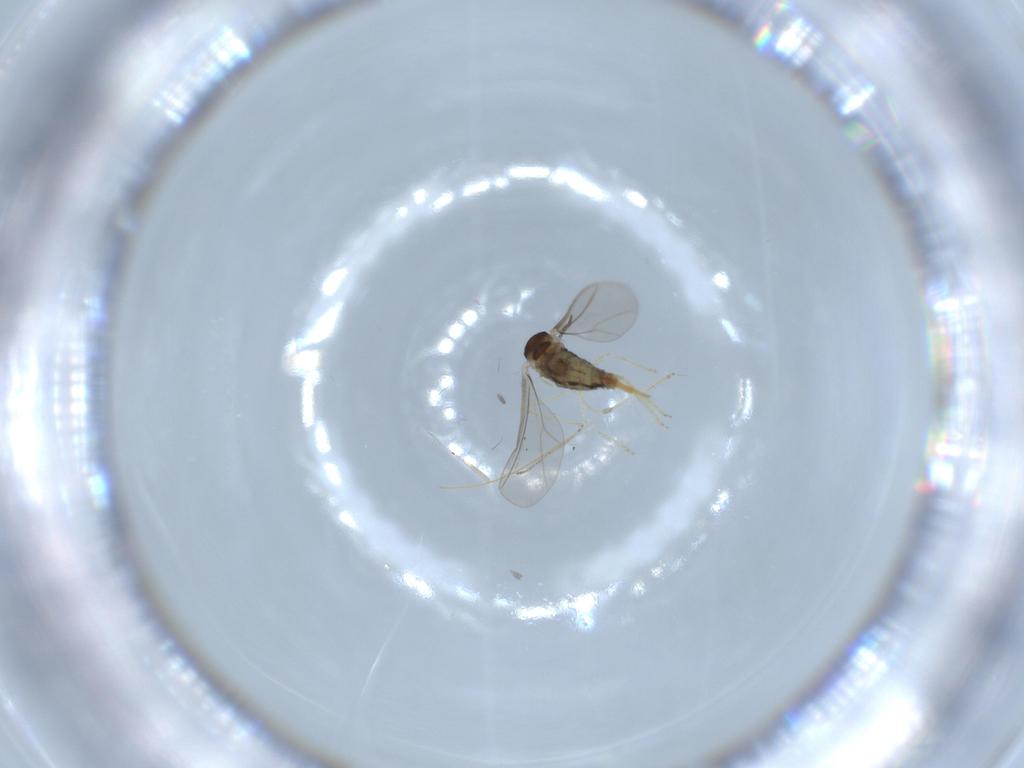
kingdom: Animalia
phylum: Arthropoda
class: Insecta
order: Diptera
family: Cecidomyiidae
